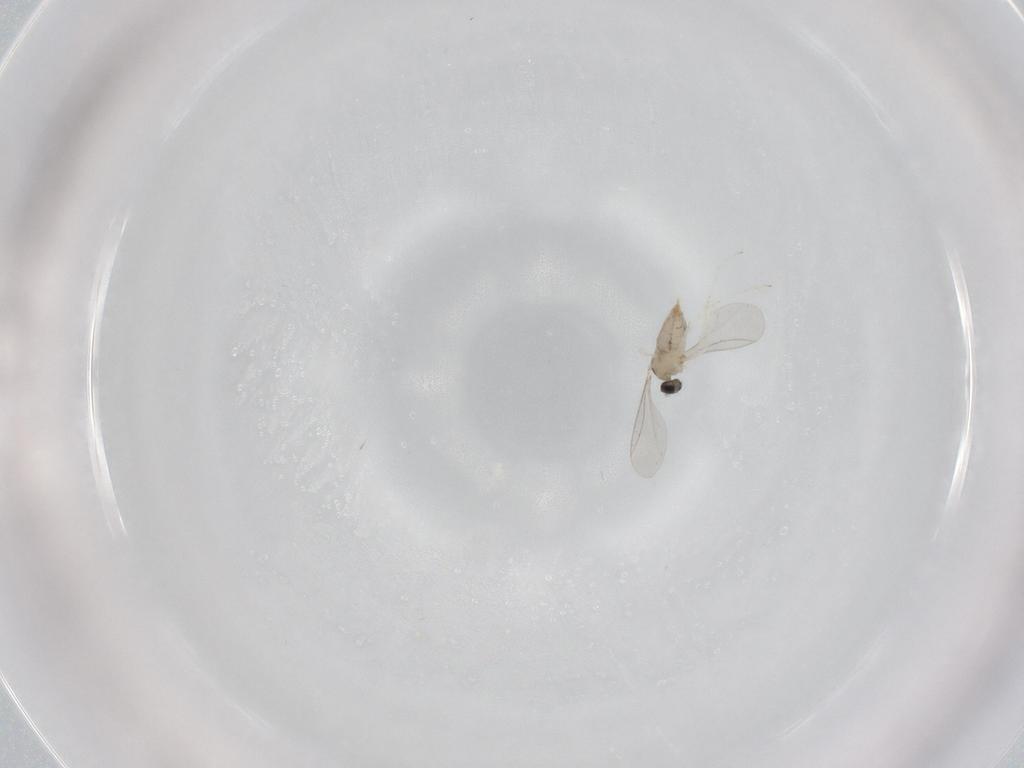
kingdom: Animalia
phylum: Arthropoda
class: Insecta
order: Diptera
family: Cecidomyiidae
